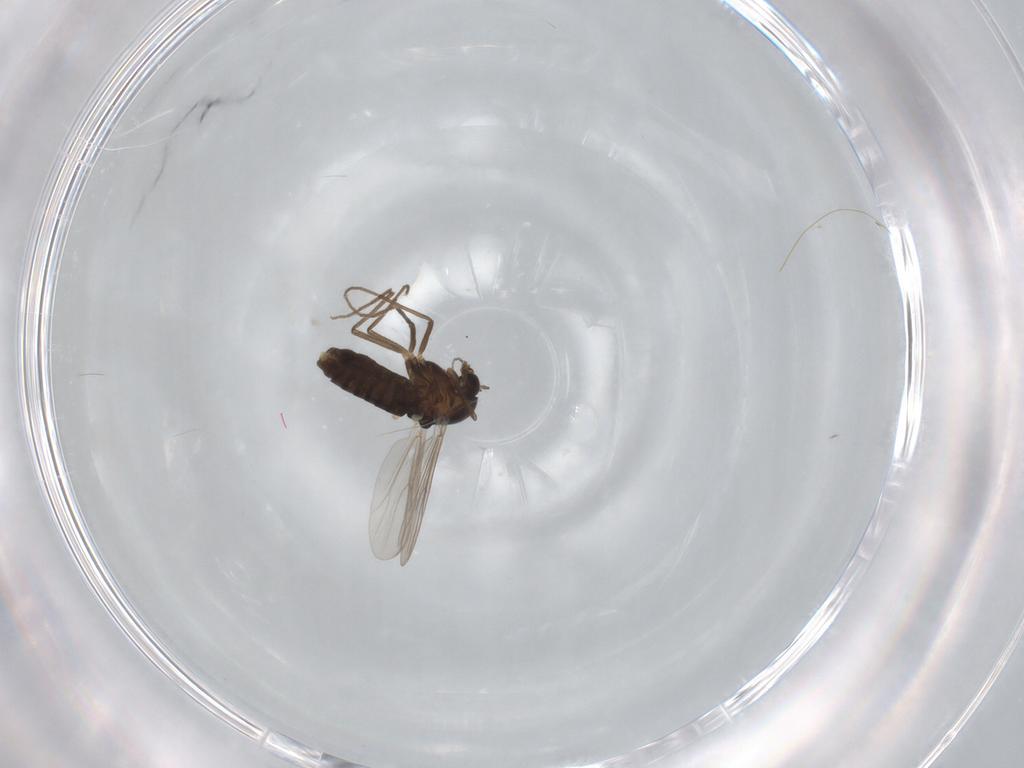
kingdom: Animalia
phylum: Arthropoda
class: Insecta
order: Diptera
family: Chironomidae
